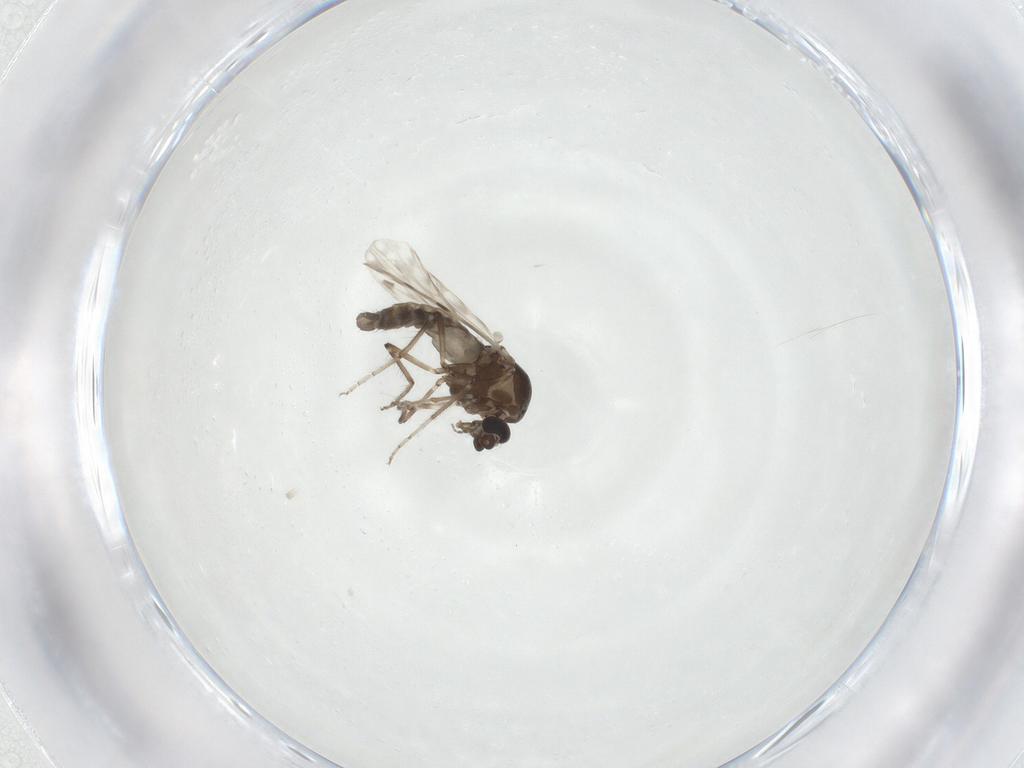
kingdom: Animalia
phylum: Arthropoda
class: Insecta
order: Diptera
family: Ceratopogonidae
